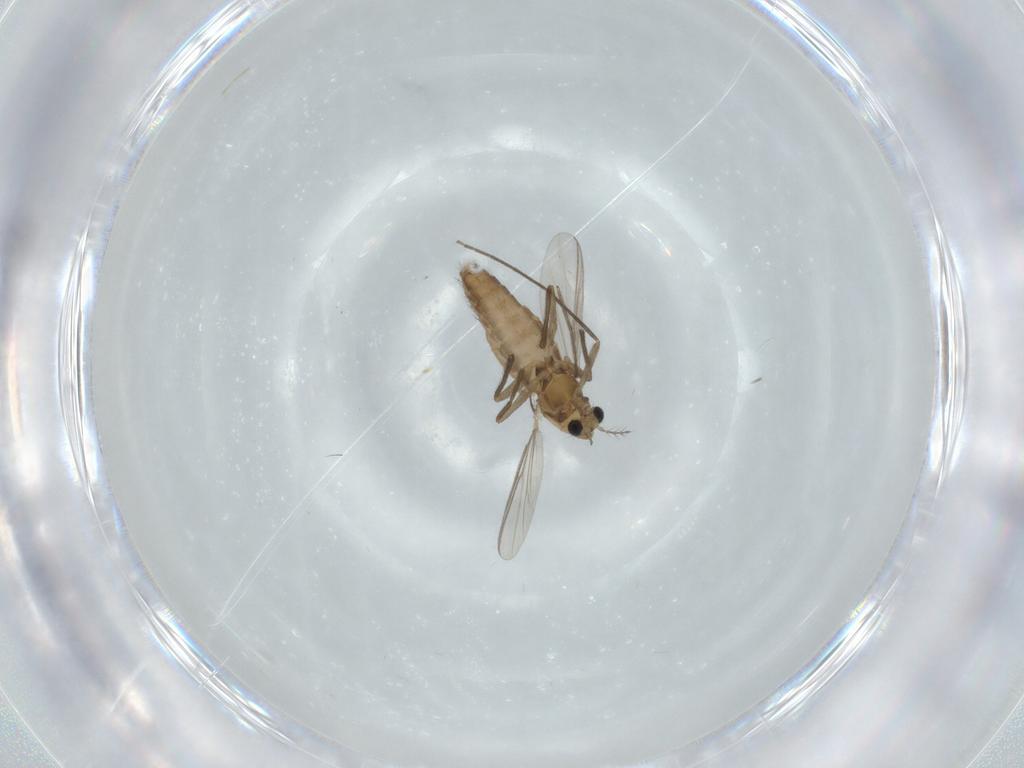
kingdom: Animalia
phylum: Arthropoda
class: Insecta
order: Diptera
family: Chironomidae
